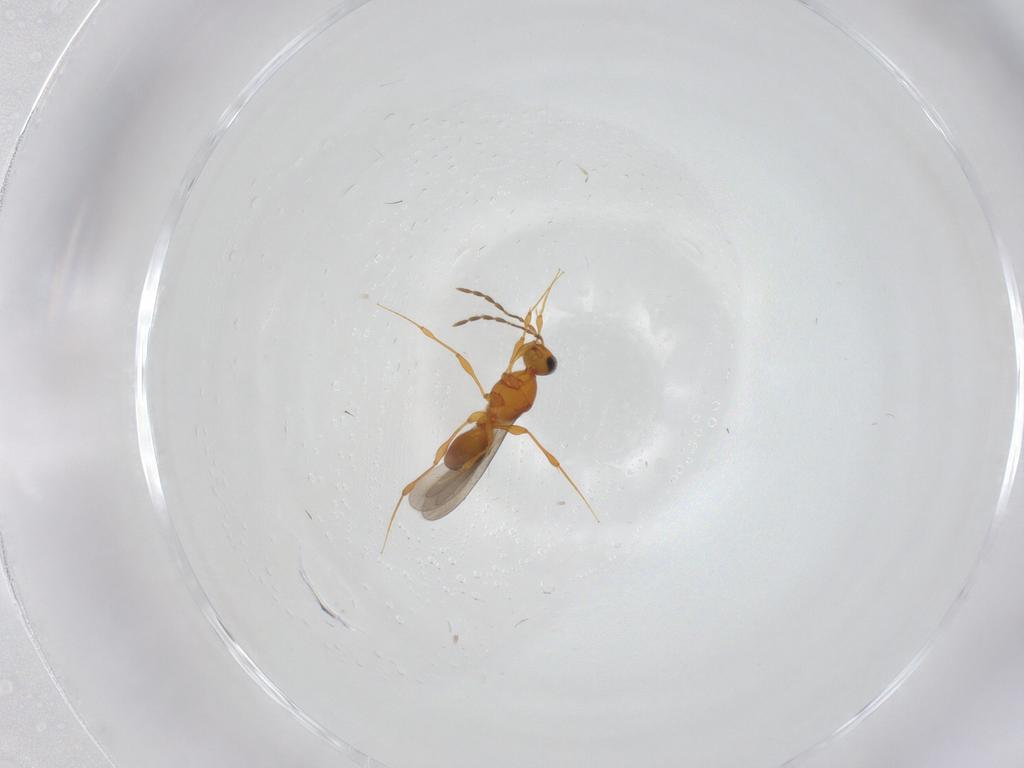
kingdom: Animalia
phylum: Arthropoda
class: Insecta
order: Hymenoptera
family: Platygastridae
